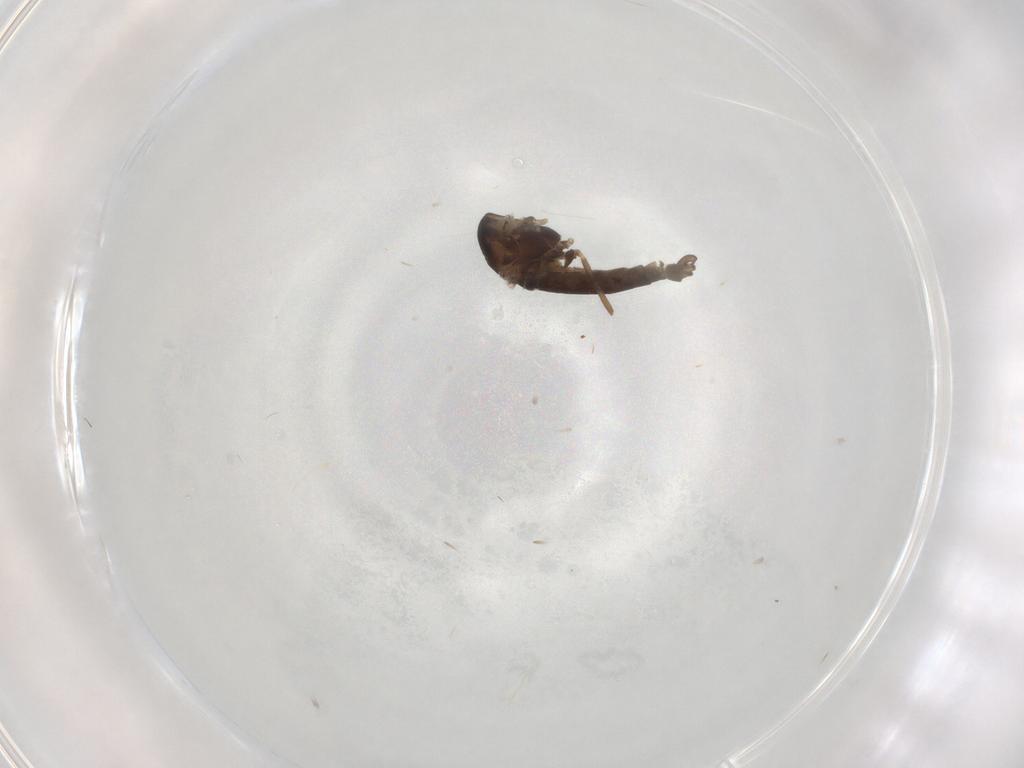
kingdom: Animalia
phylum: Arthropoda
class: Insecta
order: Diptera
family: Chironomidae
